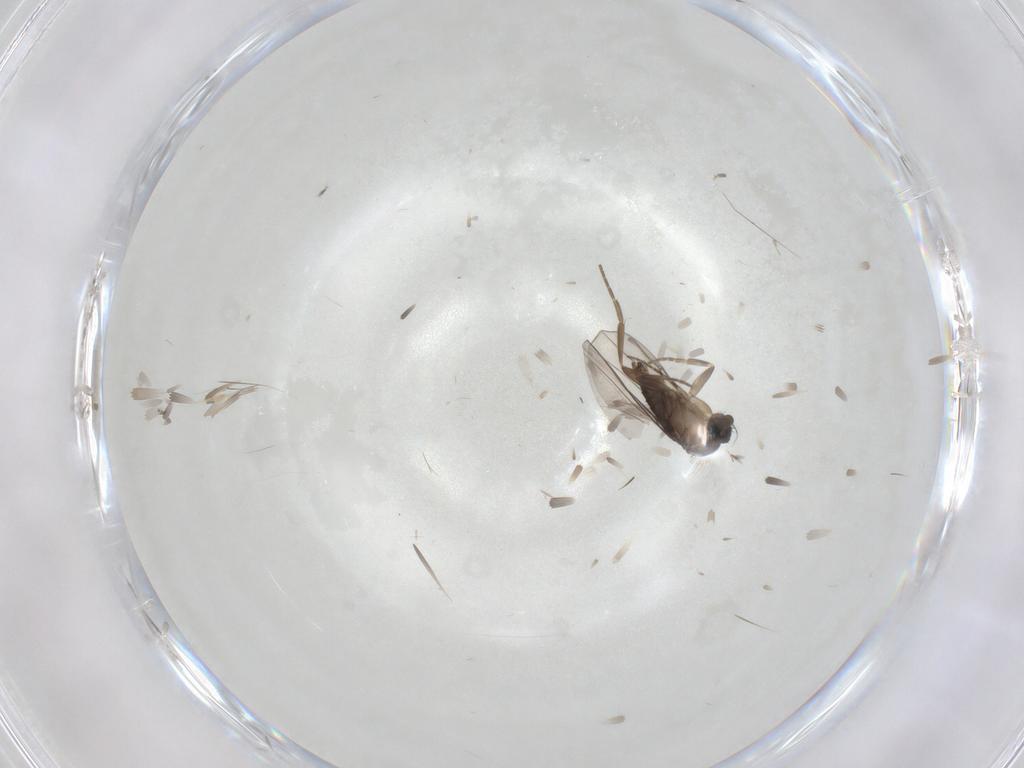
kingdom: Animalia
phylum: Arthropoda
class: Insecta
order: Diptera
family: Phoridae
